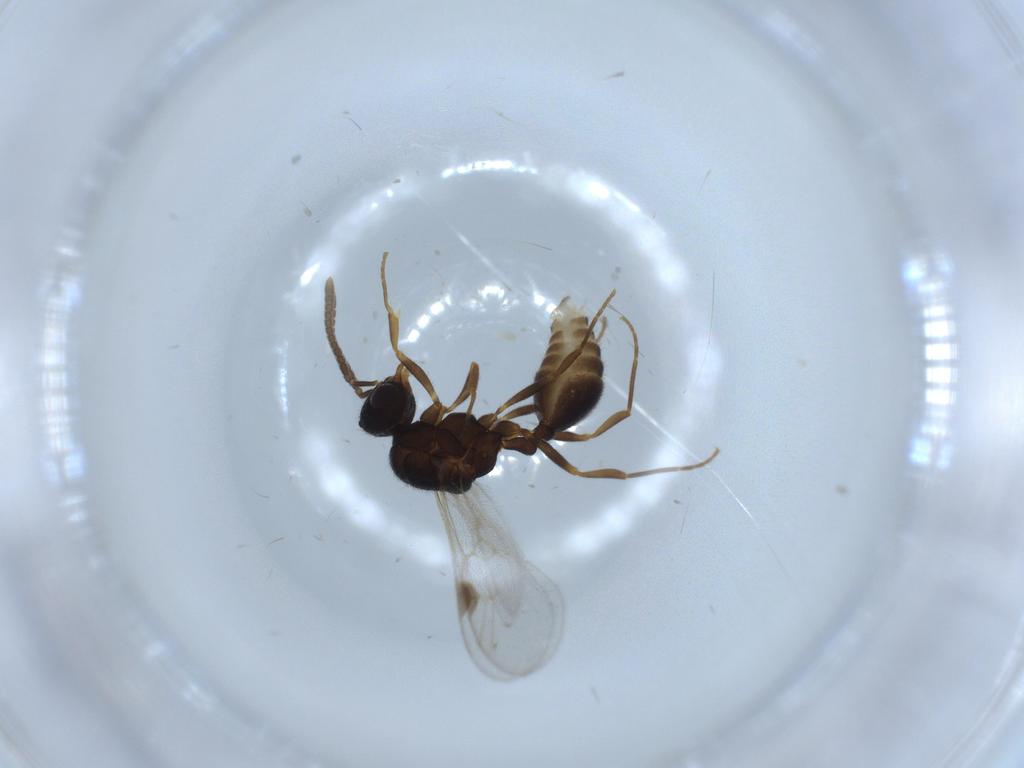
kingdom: Animalia
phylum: Arthropoda
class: Insecta
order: Hymenoptera
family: Formicidae
